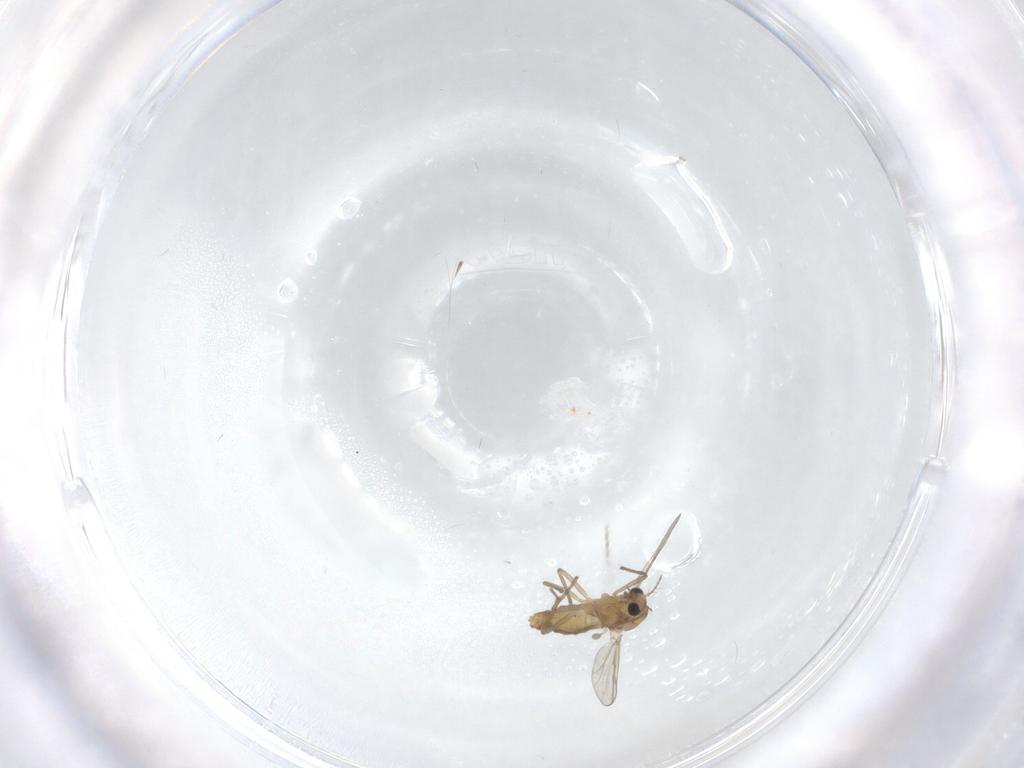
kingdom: Animalia
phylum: Arthropoda
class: Insecta
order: Diptera
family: Chironomidae
